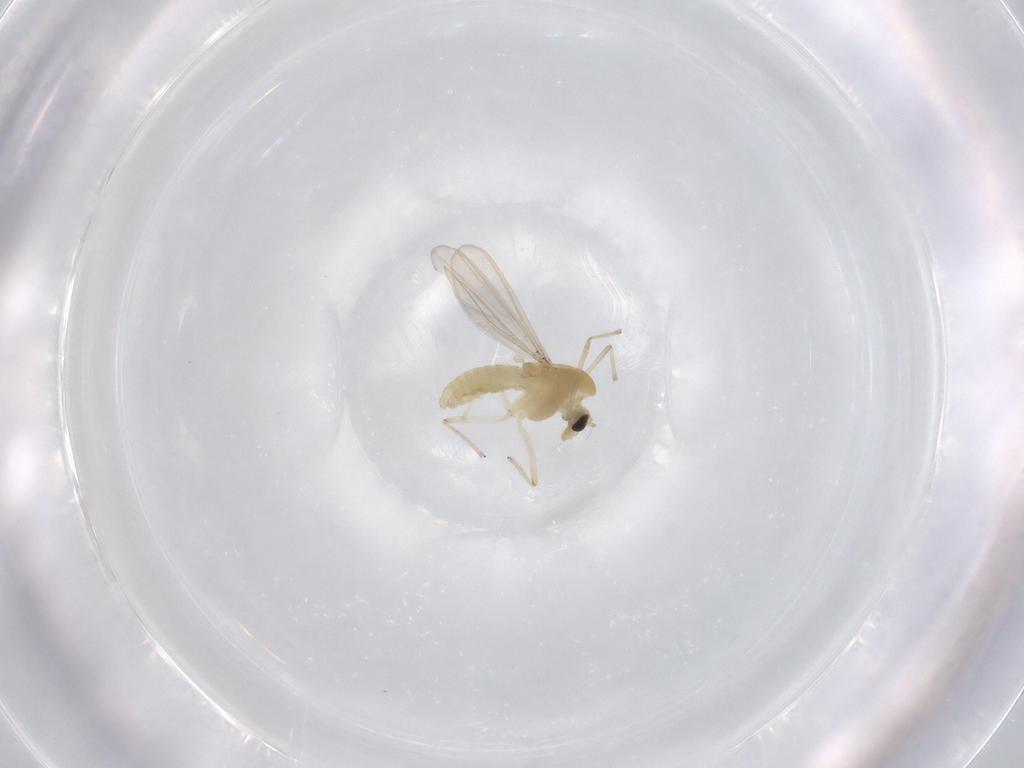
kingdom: Animalia
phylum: Arthropoda
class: Insecta
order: Diptera
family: Chironomidae
